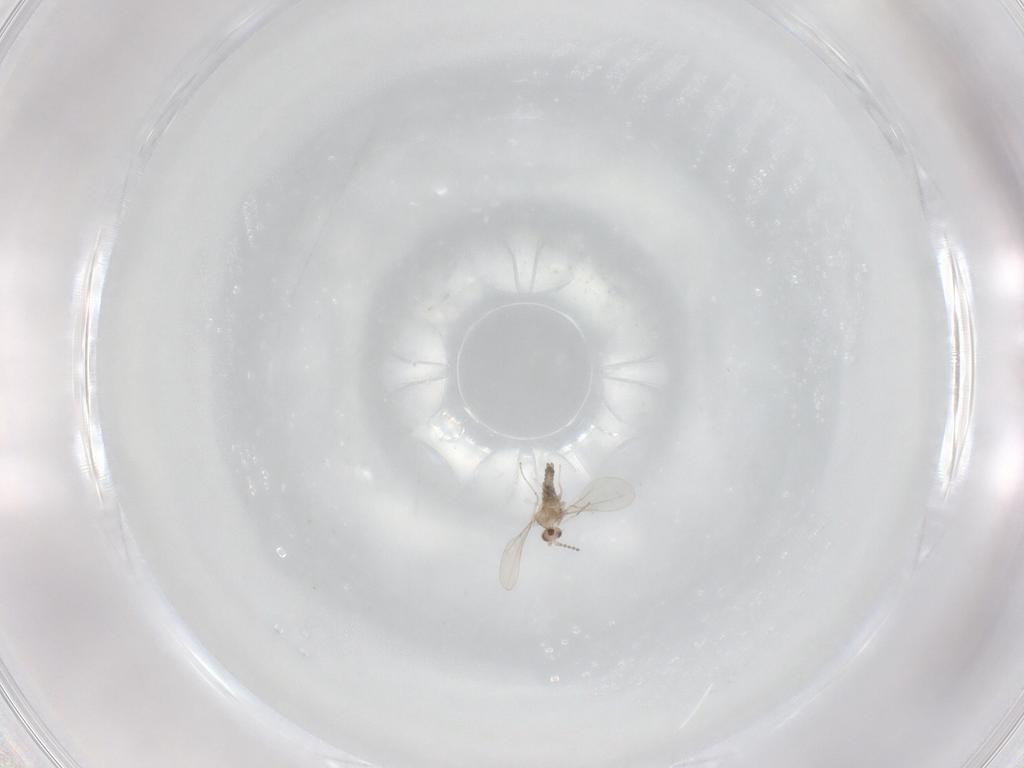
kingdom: Animalia
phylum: Arthropoda
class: Insecta
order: Diptera
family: Cecidomyiidae
